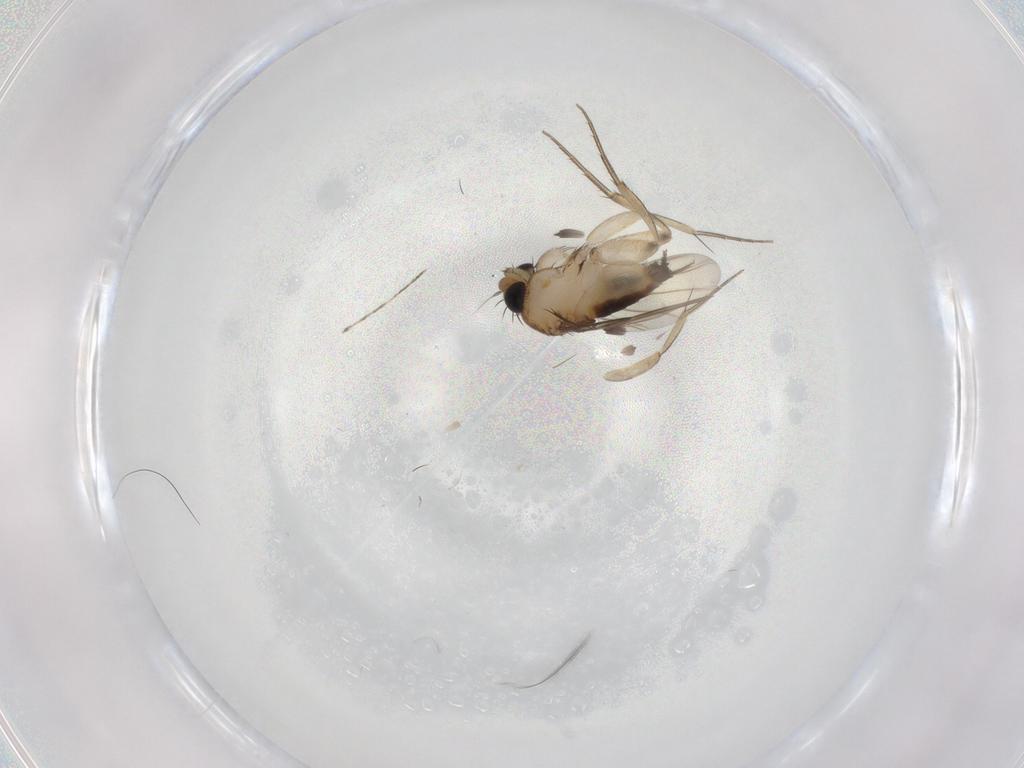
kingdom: Animalia
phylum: Arthropoda
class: Insecta
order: Diptera
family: Phoridae
